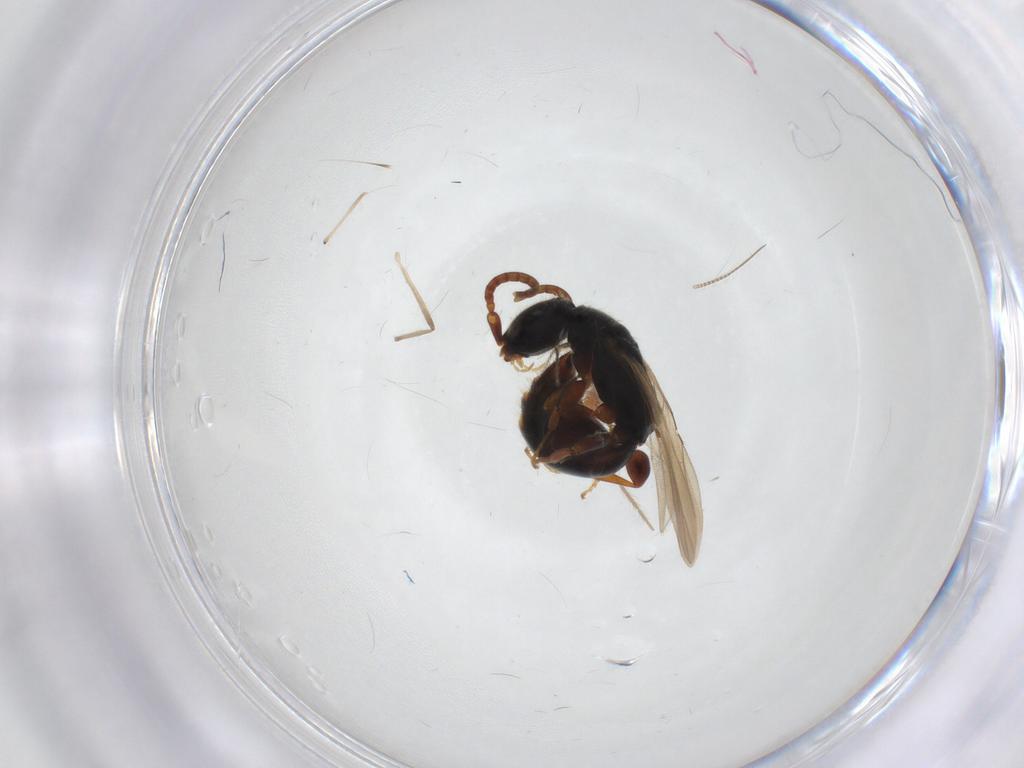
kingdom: Animalia
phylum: Arthropoda
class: Insecta
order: Hymenoptera
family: Bethylidae
